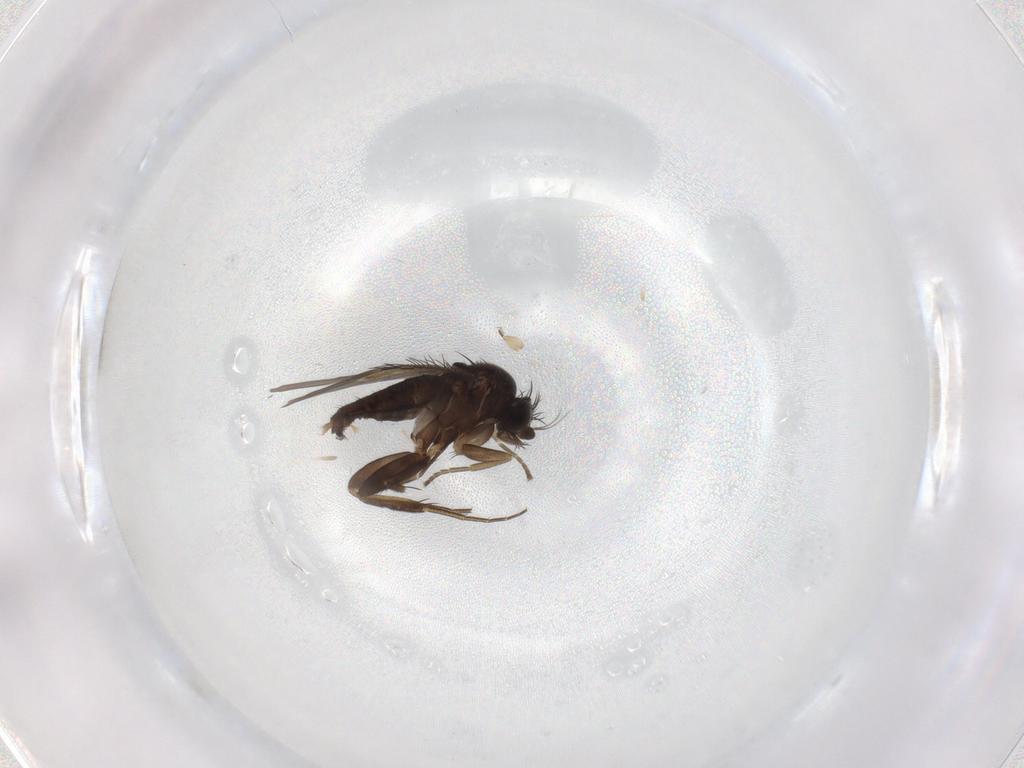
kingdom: Animalia
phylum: Arthropoda
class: Insecta
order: Diptera
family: Phoridae
